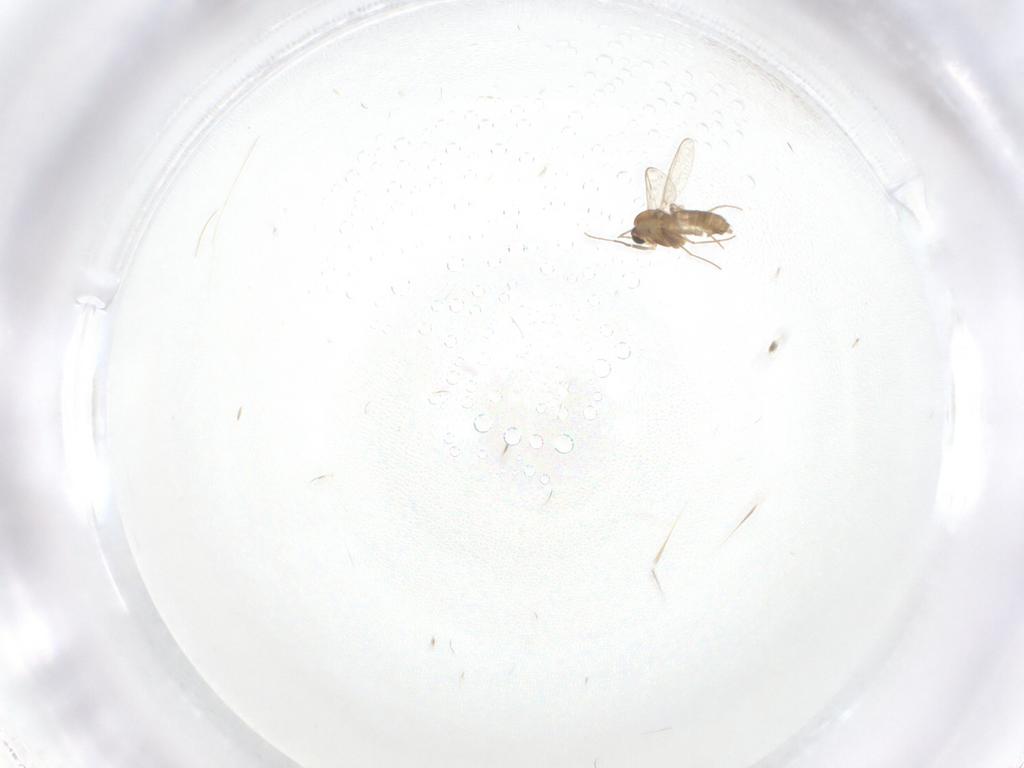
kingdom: Animalia
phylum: Arthropoda
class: Insecta
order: Diptera
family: Chironomidae
